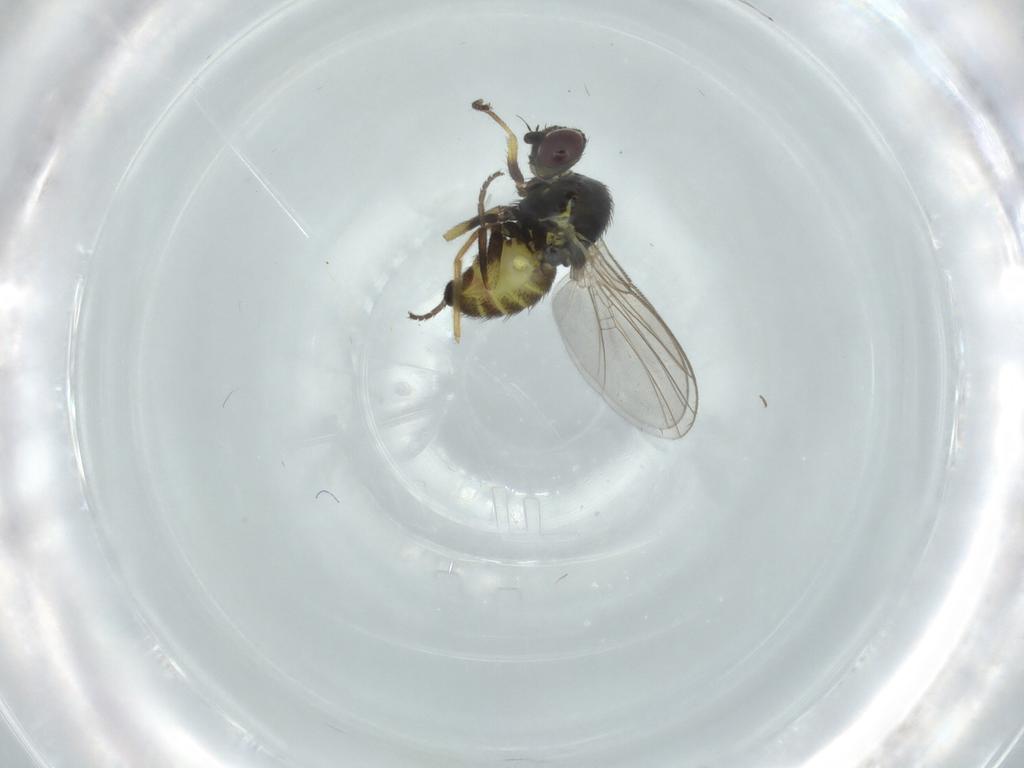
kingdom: Animalia
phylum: Arthropoda
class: Insecta
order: Diptera
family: Agromyzidae
